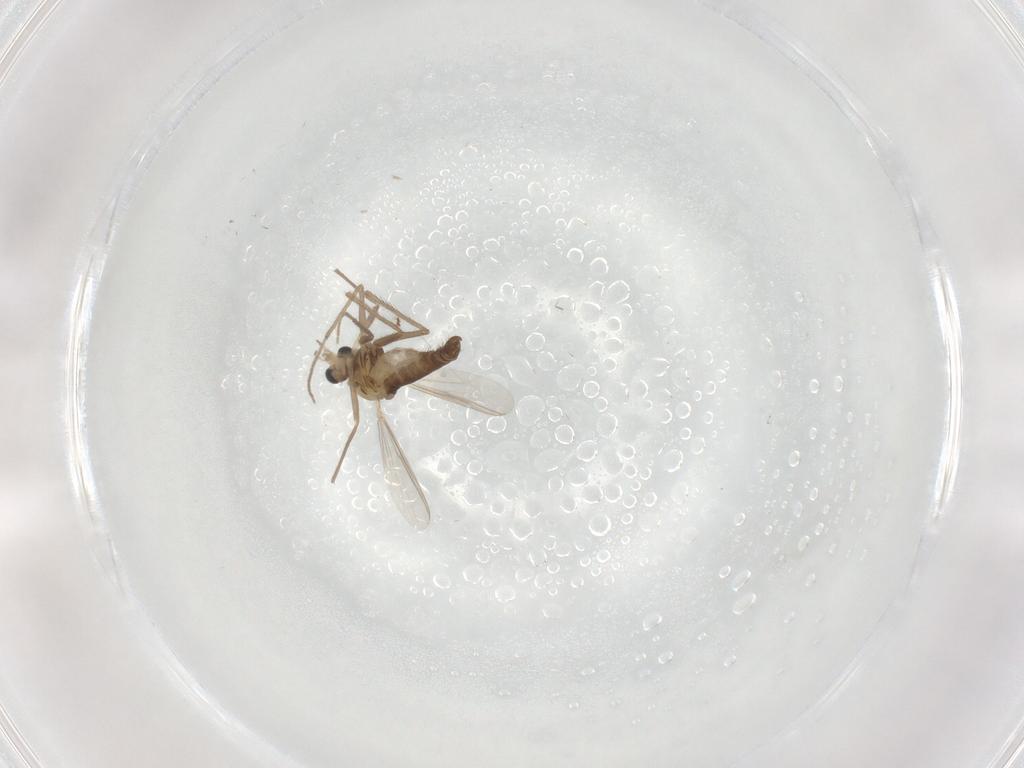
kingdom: Animalia
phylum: Arthropoda
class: Insecta
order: Diptera
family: Chironomidae
